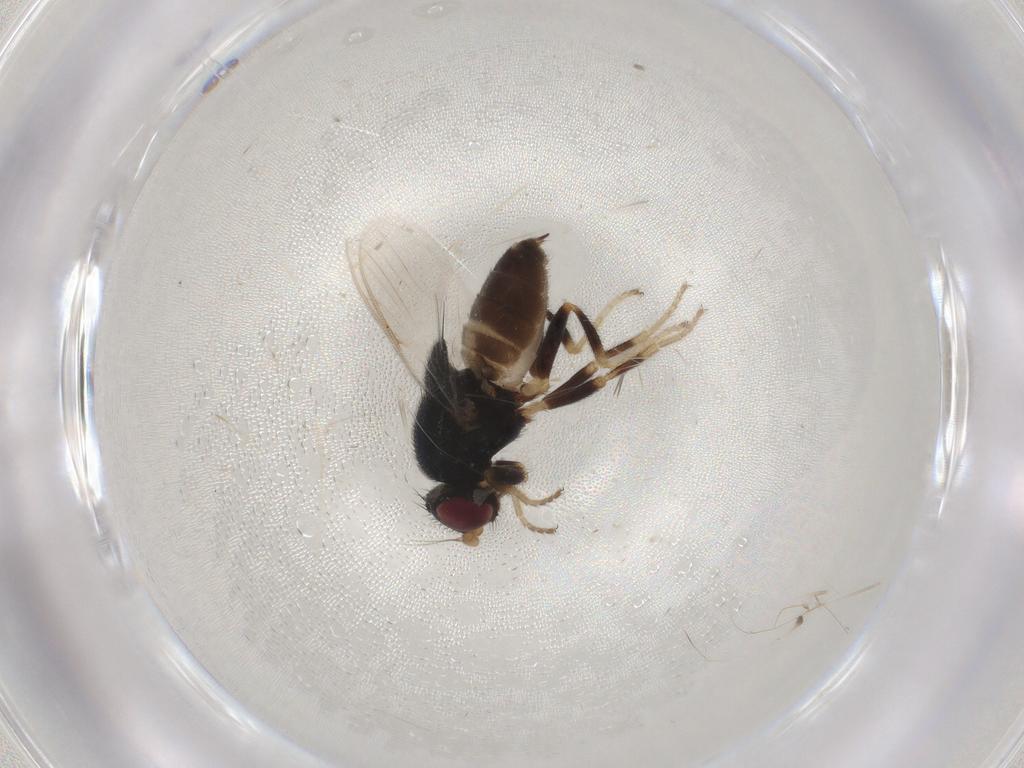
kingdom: Animalia
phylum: Arthropoda
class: Insecta
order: Diptera
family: Chloropidae
